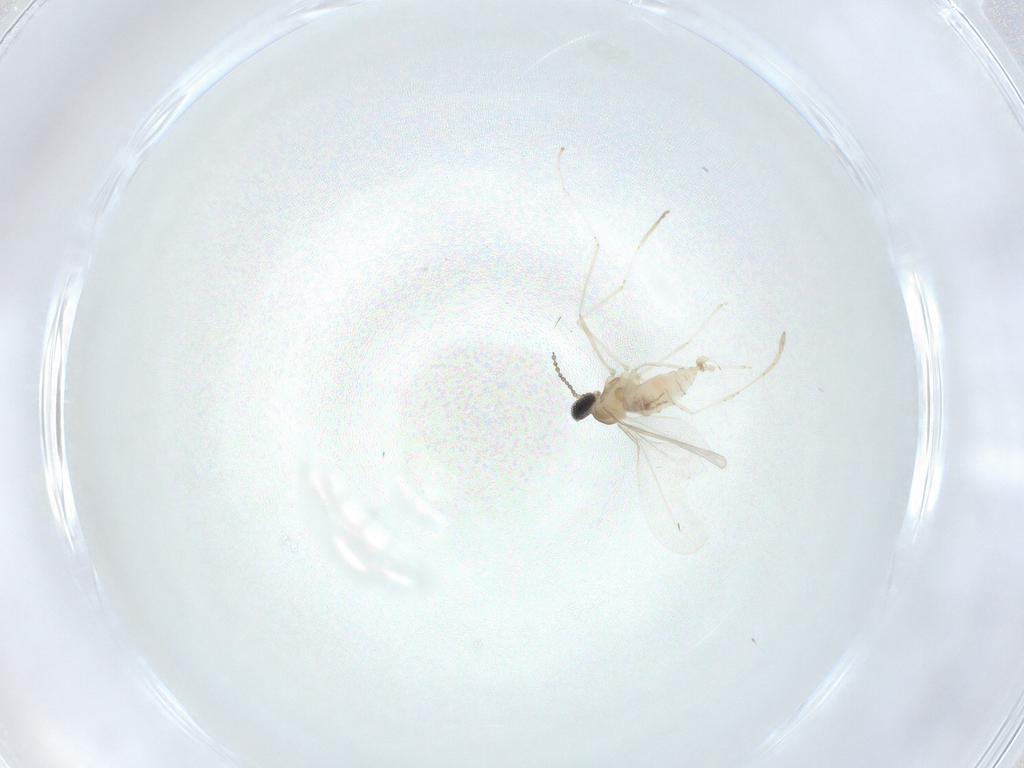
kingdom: Animalia
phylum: Arthropoda
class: Insecta
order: Diptera
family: Cecidomyiidae
